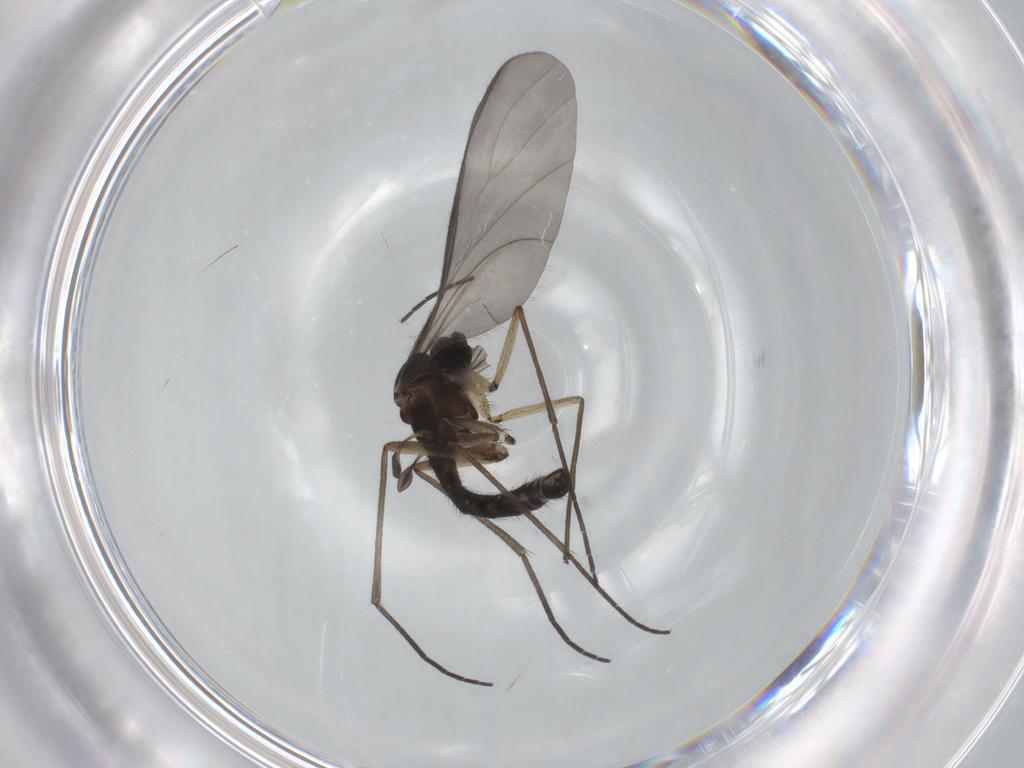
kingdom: Animalia
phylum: Arthropoda
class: Insecta
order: Diptera
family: Sciaridae
